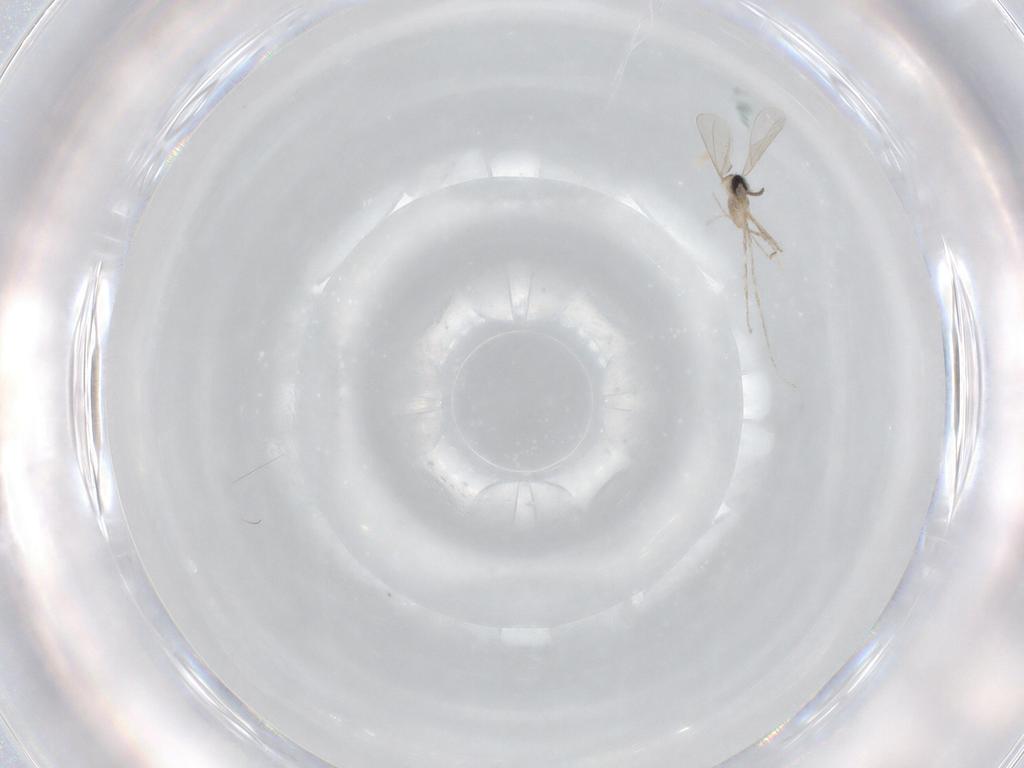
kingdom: Animalia
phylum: Arthropoda
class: Insecta
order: Diptera
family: Cecidomyiidae
